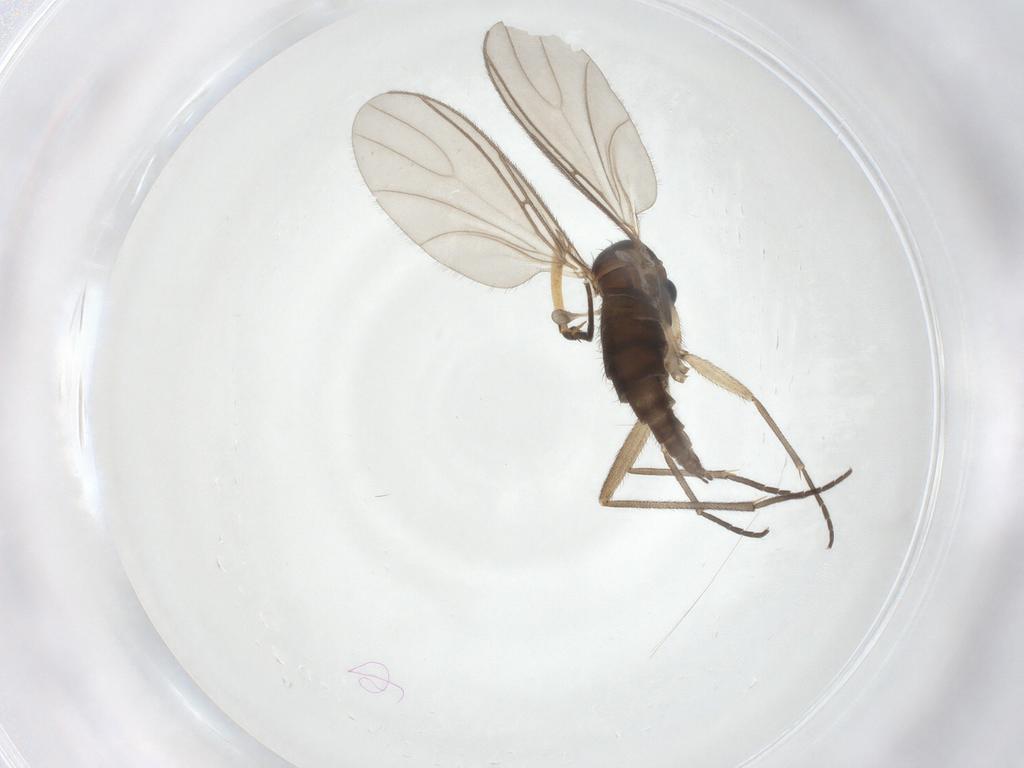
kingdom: Animalia
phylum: Arthropoda
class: Insecta
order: Diptera
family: Mycetophilidae
